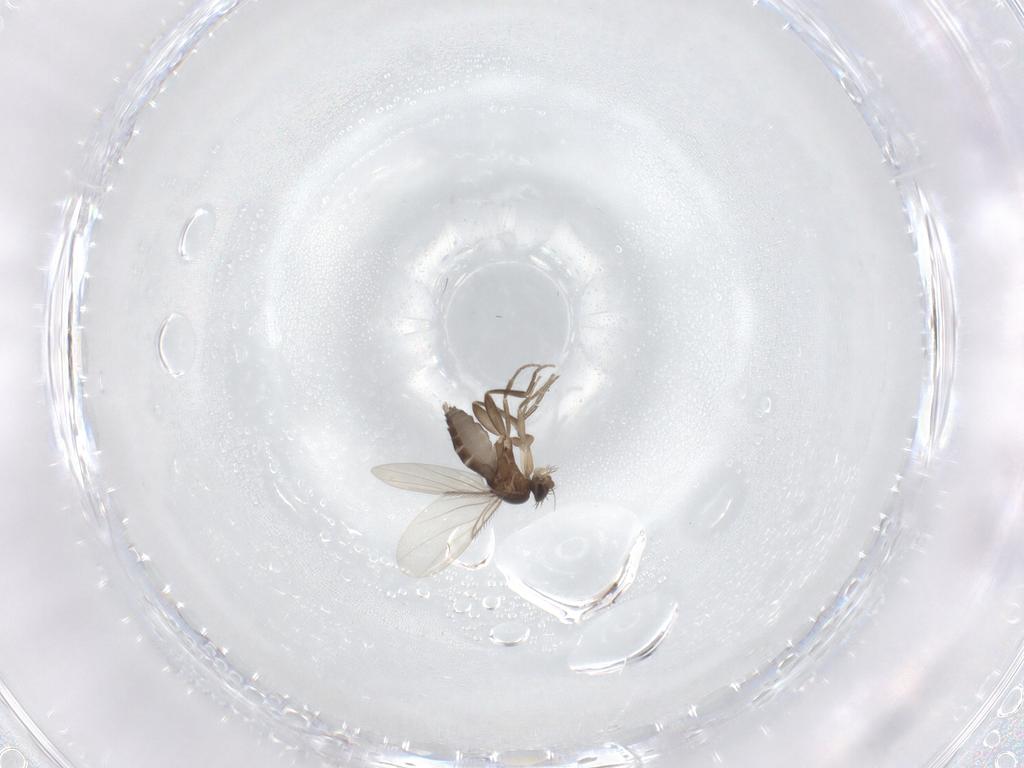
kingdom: Animalia
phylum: Arthropoda
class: Insecta
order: Diptera
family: Phoridae
